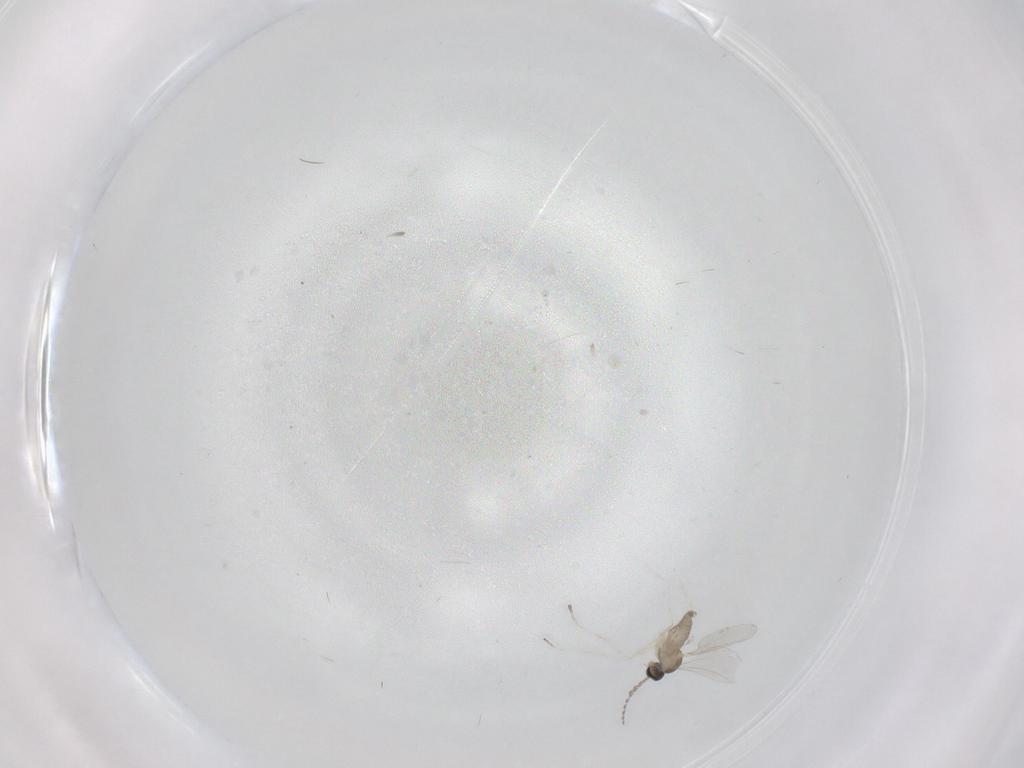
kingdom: Animalia
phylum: Arthropoda
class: Insecta
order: Diptera
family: Cecidomyiidae
